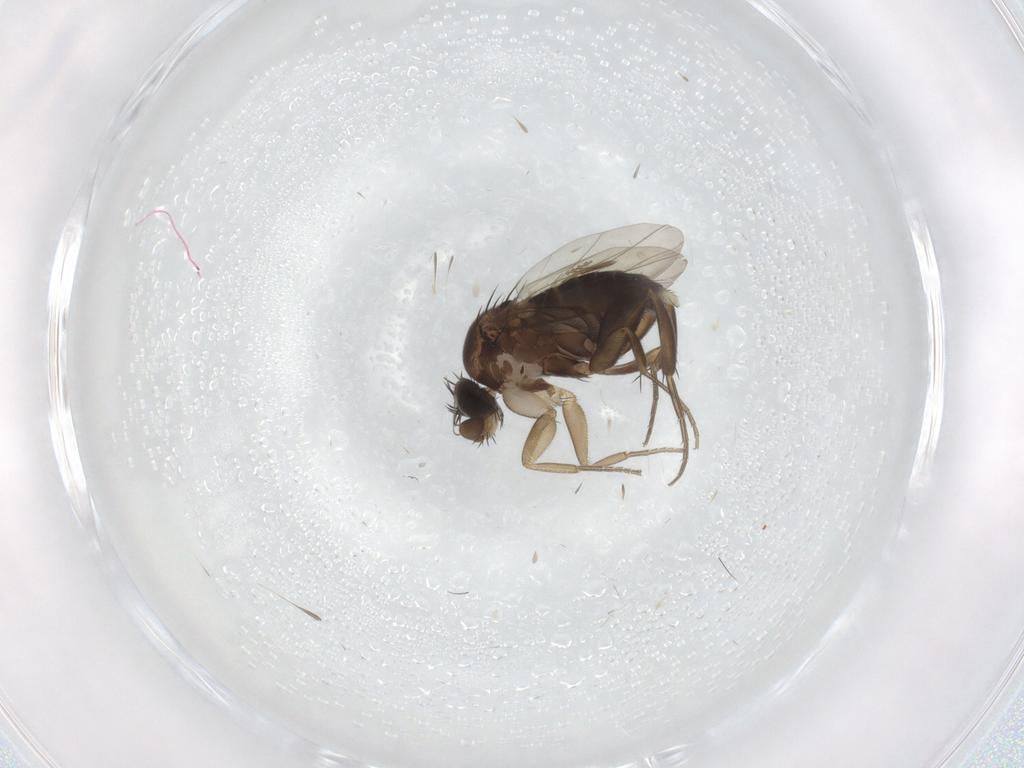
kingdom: Animalia
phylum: Arthropoda
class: Insecta
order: Diptera
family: Phoridae
